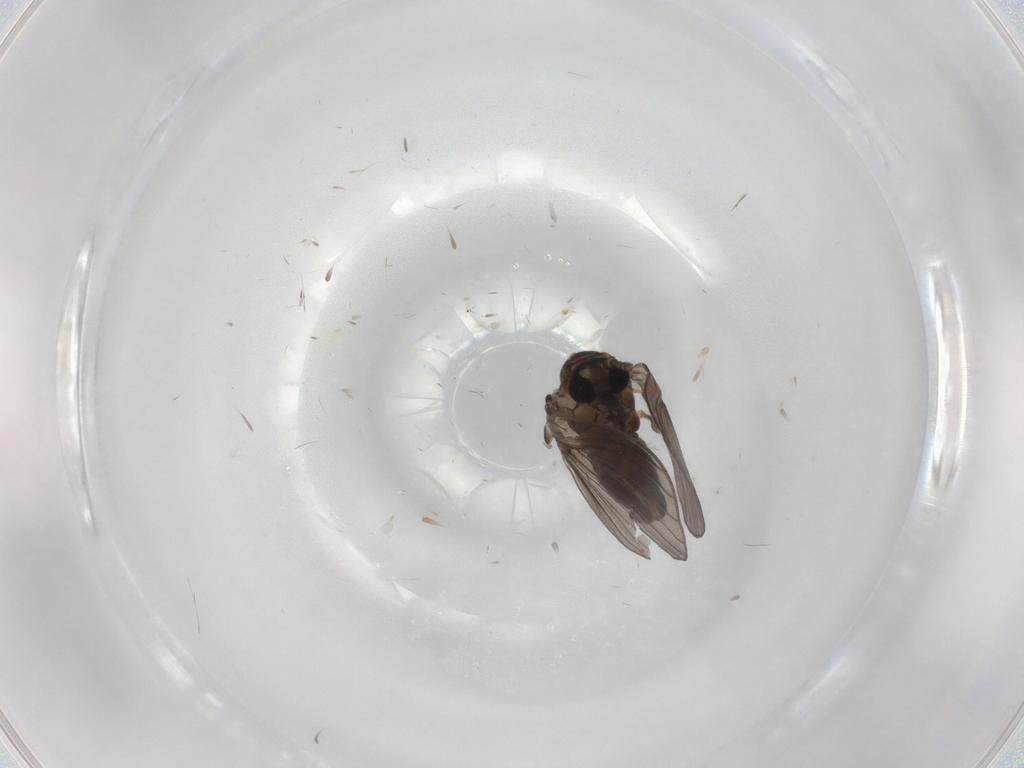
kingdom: Animalia
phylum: Arthropoda
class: Insecta
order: Diptera
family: Psychodidae
